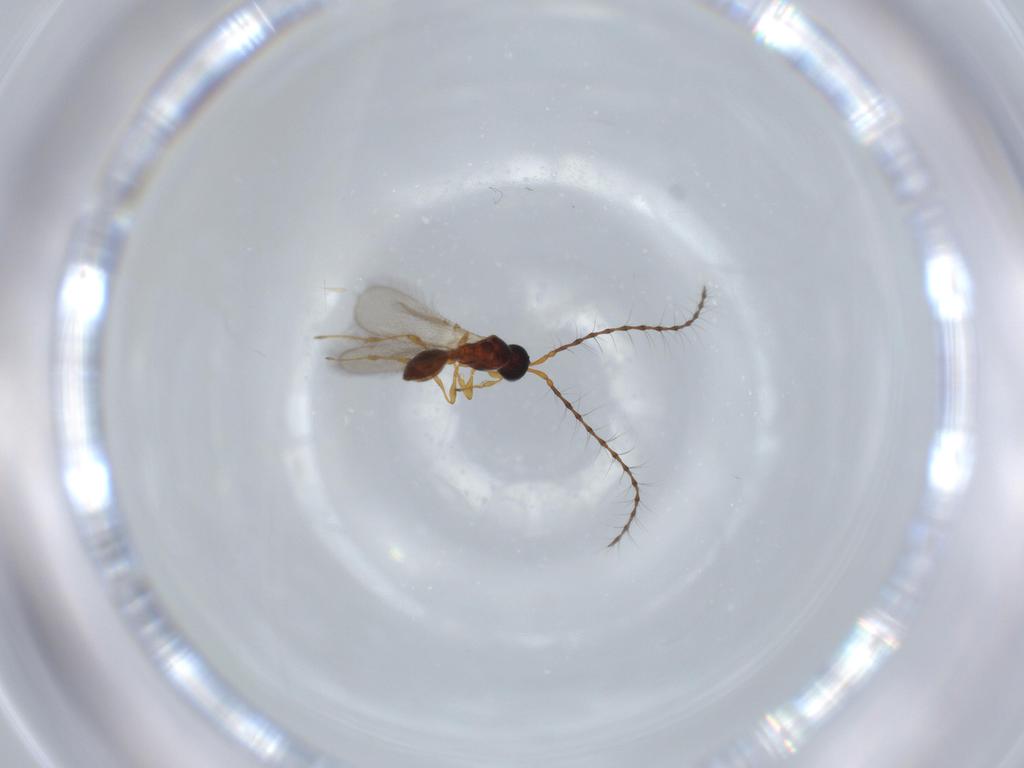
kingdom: Animalia
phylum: Arthropoda
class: Insecta
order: Hymenoptera
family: Diapriidae
